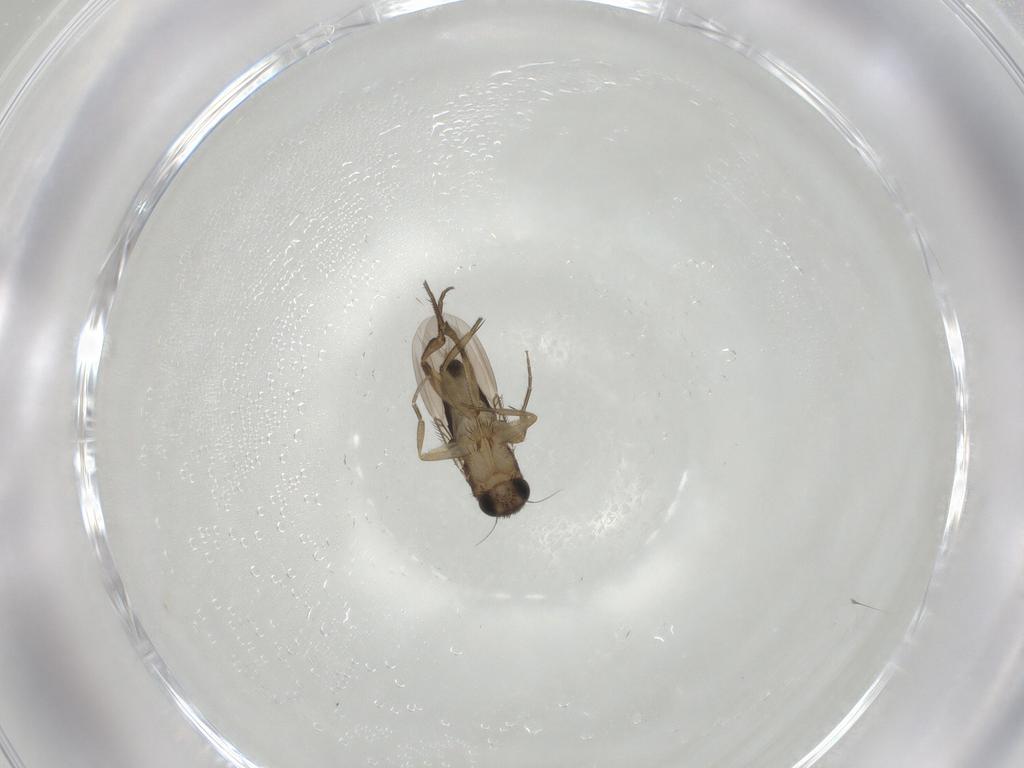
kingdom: Animalia
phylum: Arthropoda
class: Insecta
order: Diptera
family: Phoridae
